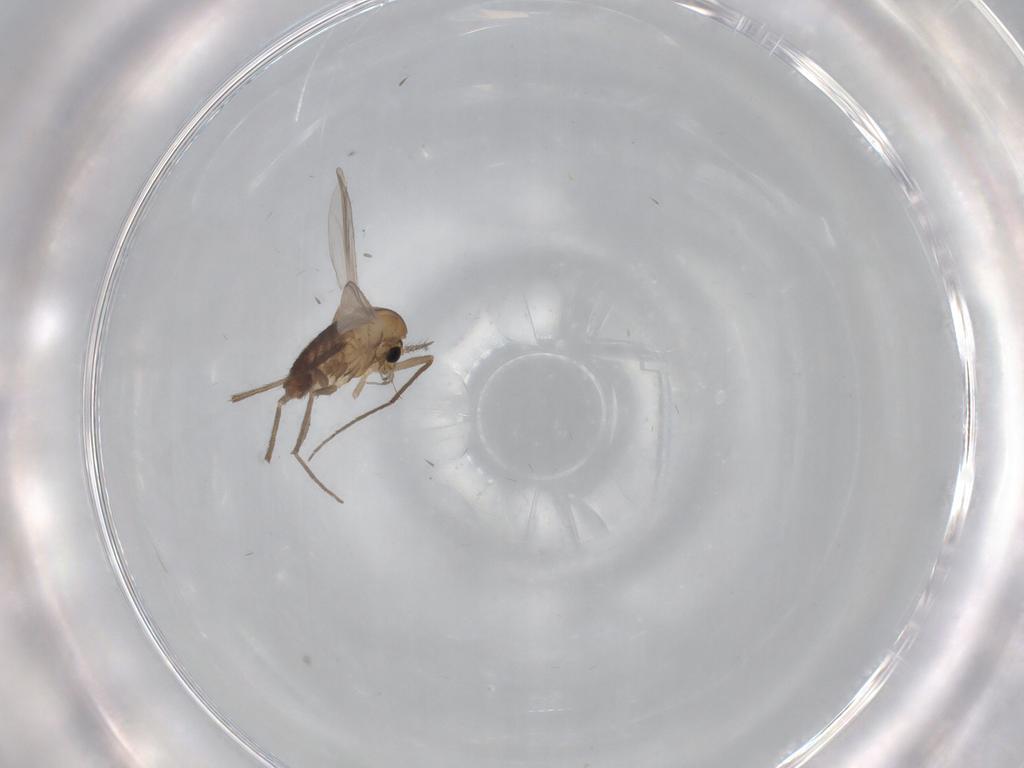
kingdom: Animalia
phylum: Arthropoda
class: Insecta
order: Diptera
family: Chironomidae
